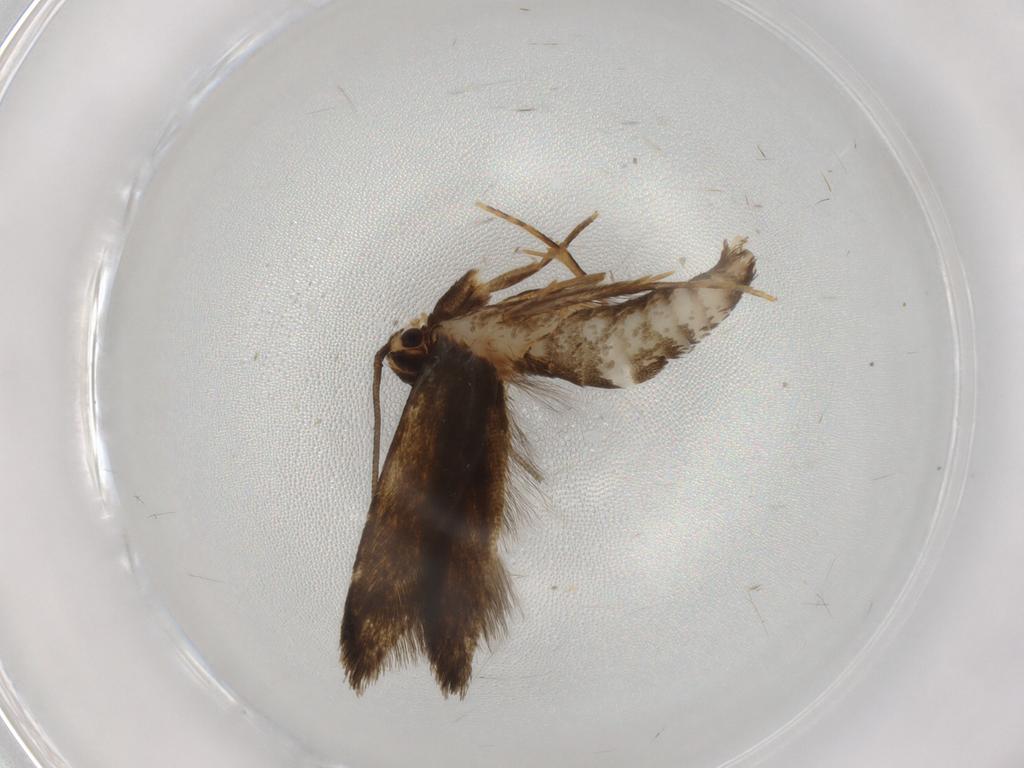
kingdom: Animalia
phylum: Arthropoda
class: Insecta
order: Lepidoptera
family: Tineidae
